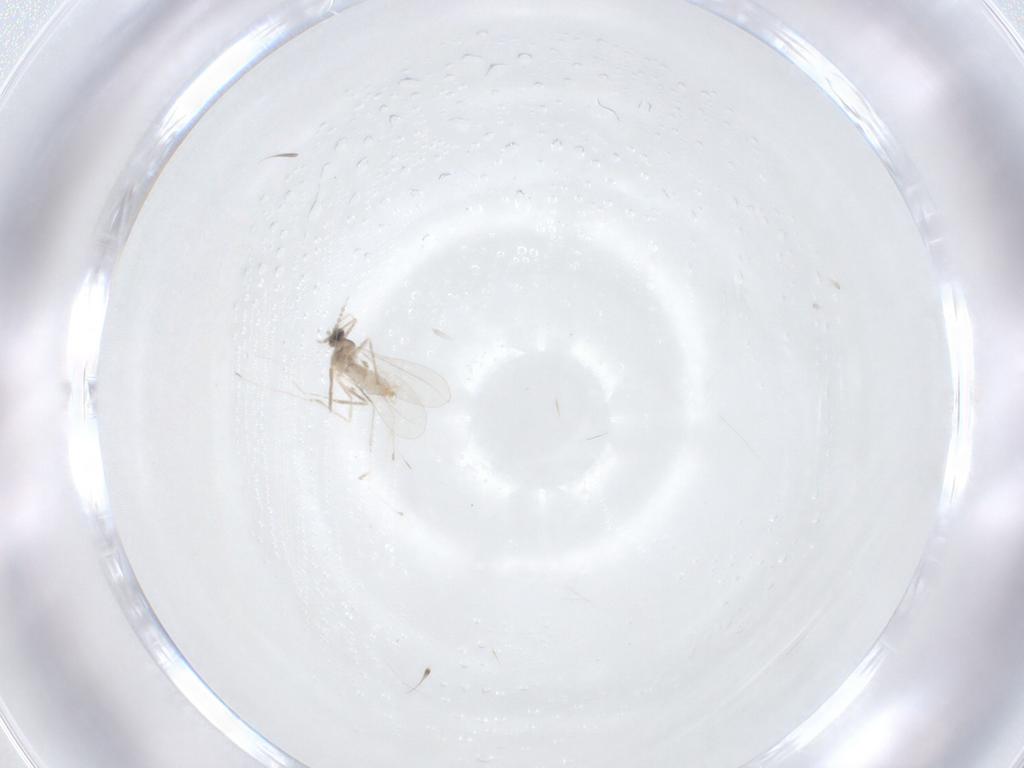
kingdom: Animalia
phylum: Arthropoda
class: Insecta
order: Diptera
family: Cecidomyiidae
